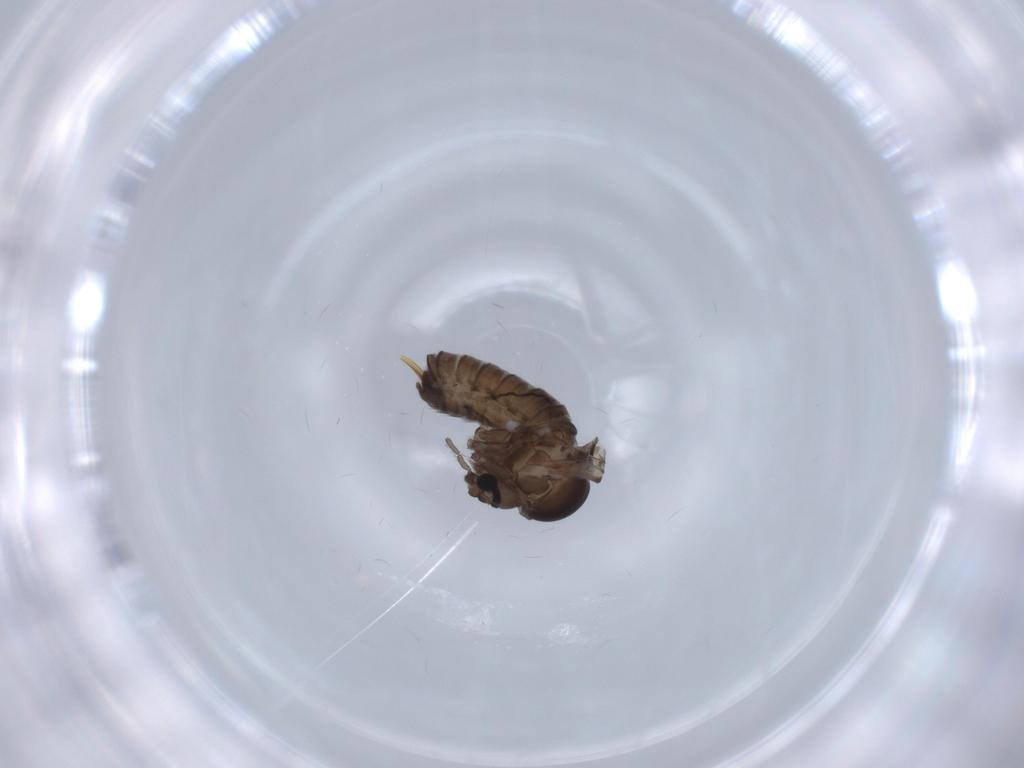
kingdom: Animalia
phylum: Arthropoda
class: Insecta
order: Diptera
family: Psychodidae
